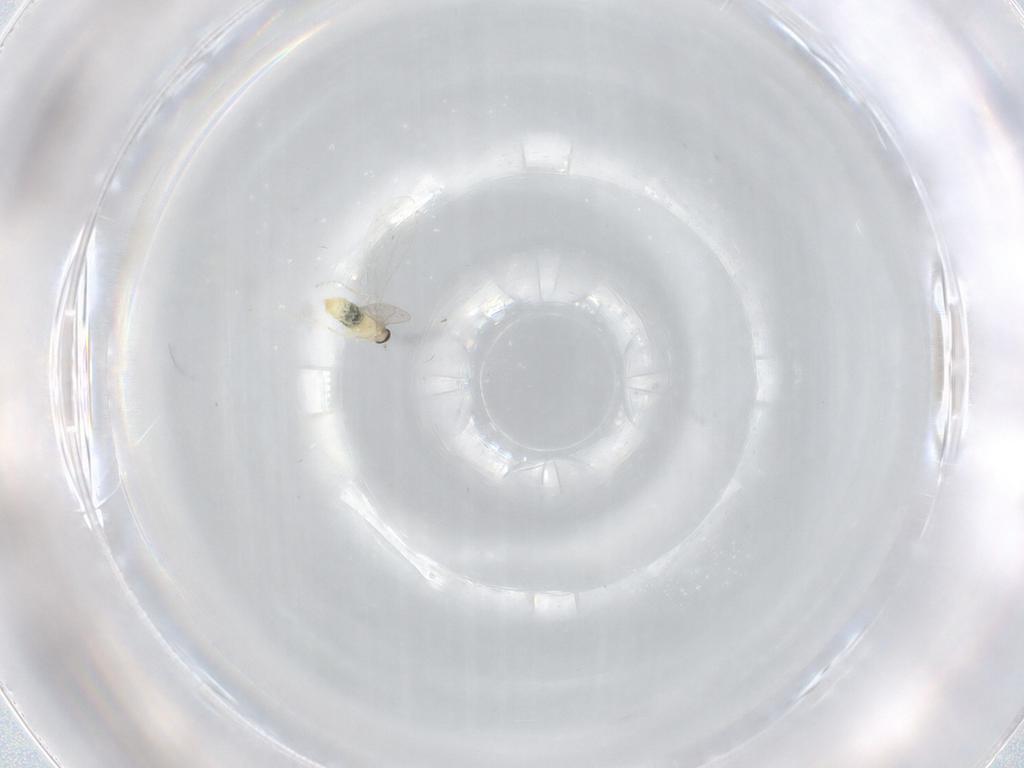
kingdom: Animalia
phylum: Arthropoda
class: Insecta
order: Diptera
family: Cecidomyiidae
